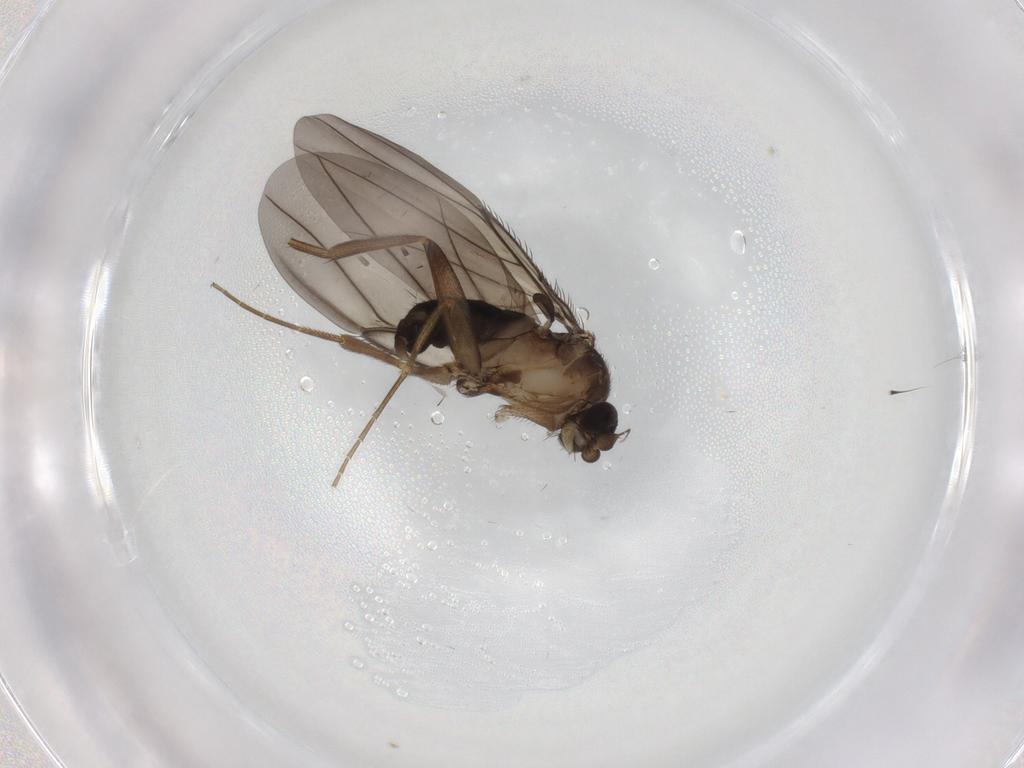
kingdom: Animalia
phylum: Arthropoda
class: Insecta
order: Diptera
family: Phoridae
